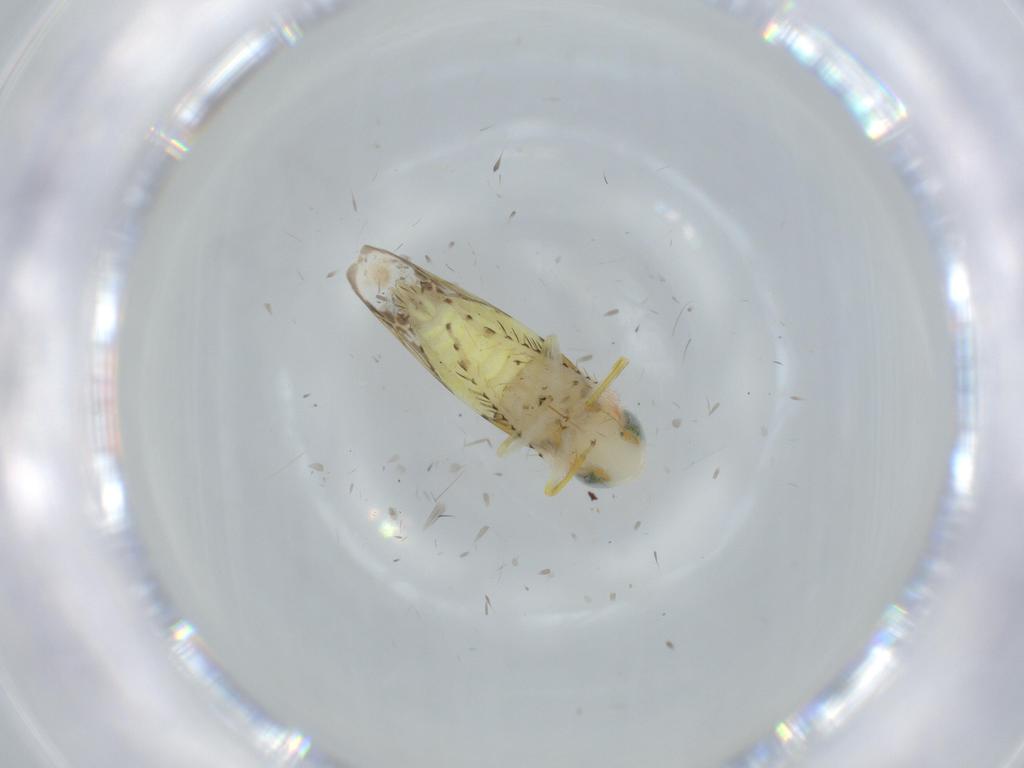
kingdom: Animalia
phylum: Arthropoda
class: Insecta
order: Hemiptera
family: Cicadellidae
